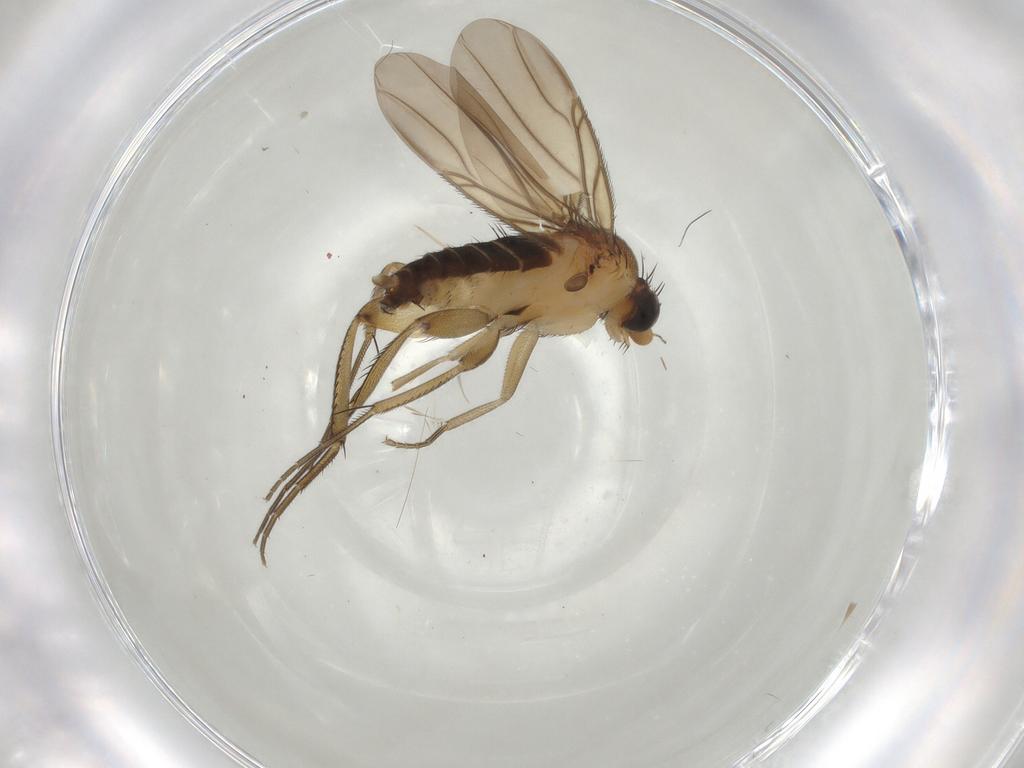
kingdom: Animalia
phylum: Arthropoda
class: Insecta
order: Diptera
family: Phoridae
